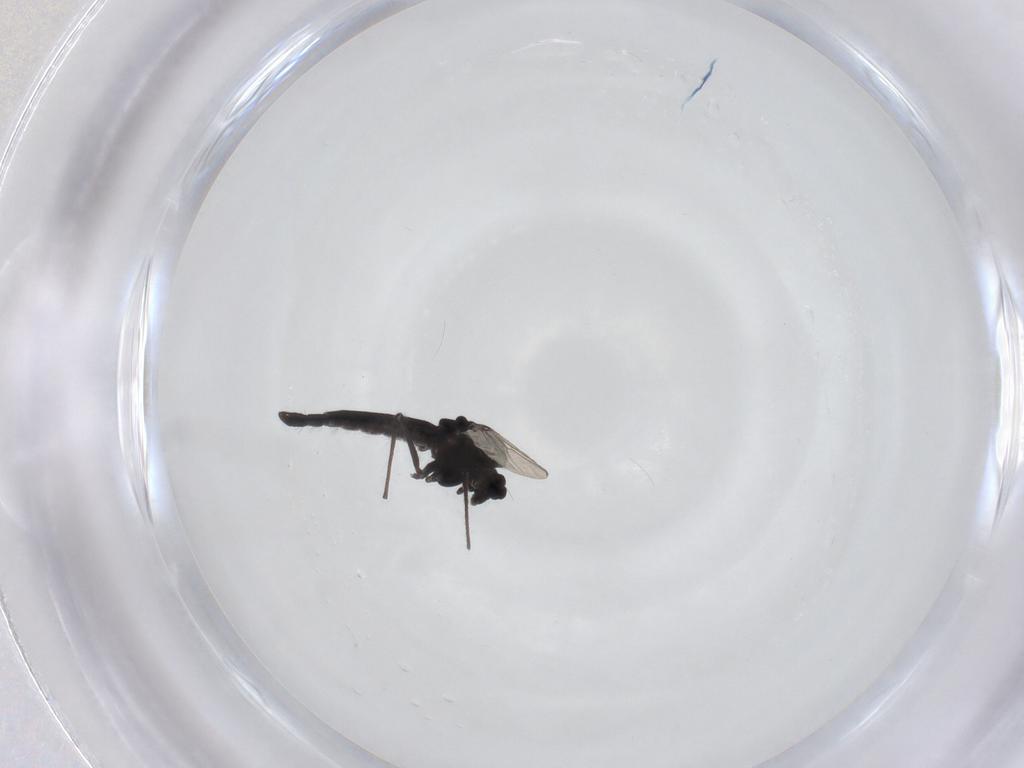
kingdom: Animalia
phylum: Arthropoda
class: Insecta
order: Diptera
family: Chironomidae
